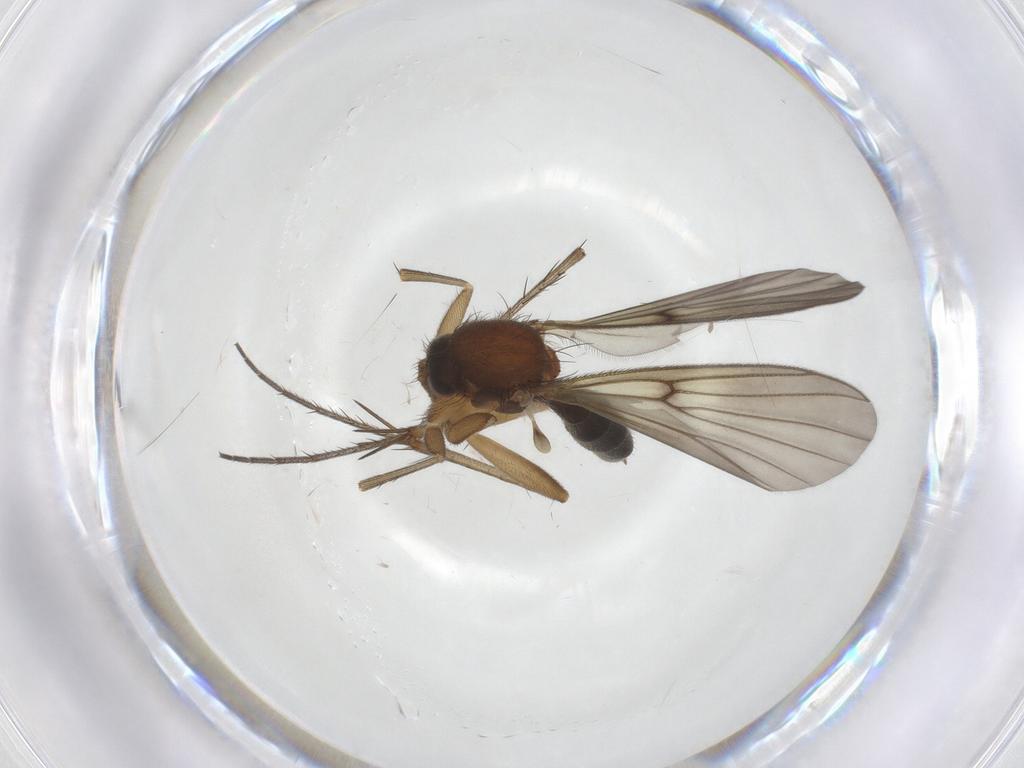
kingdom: Animalia
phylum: Arthropoda
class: Insecta
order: Diptera
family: Mycetophilidae
